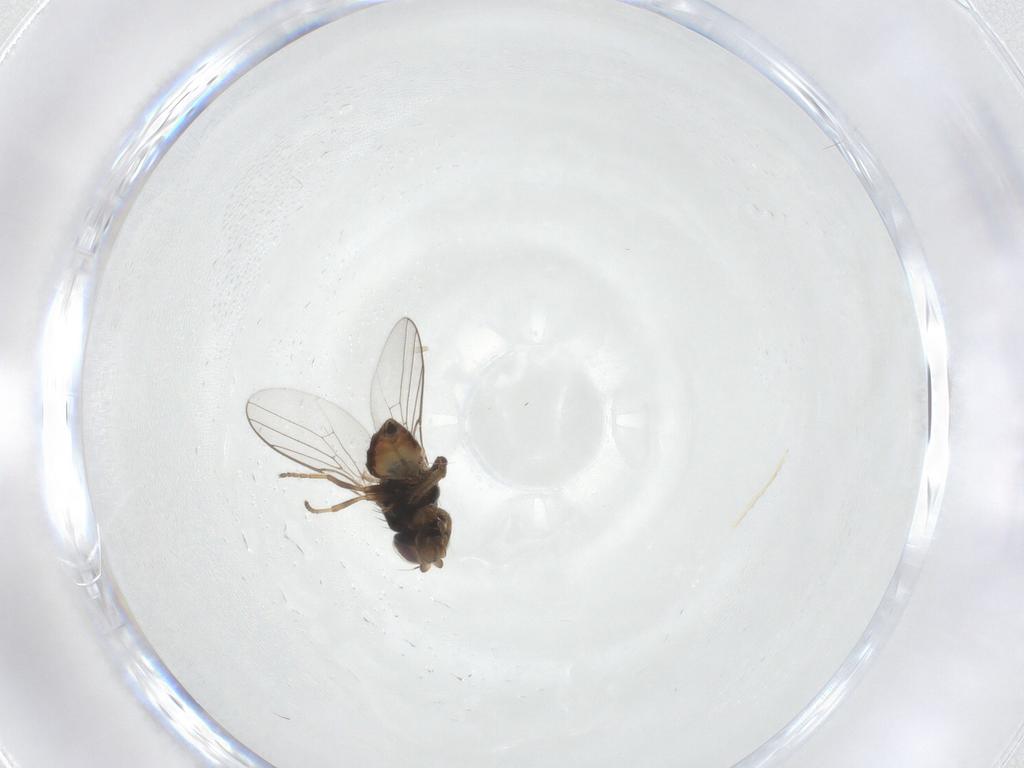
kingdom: Animalia
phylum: Arthropoda
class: Insecta
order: Diptera
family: Chloropidae
